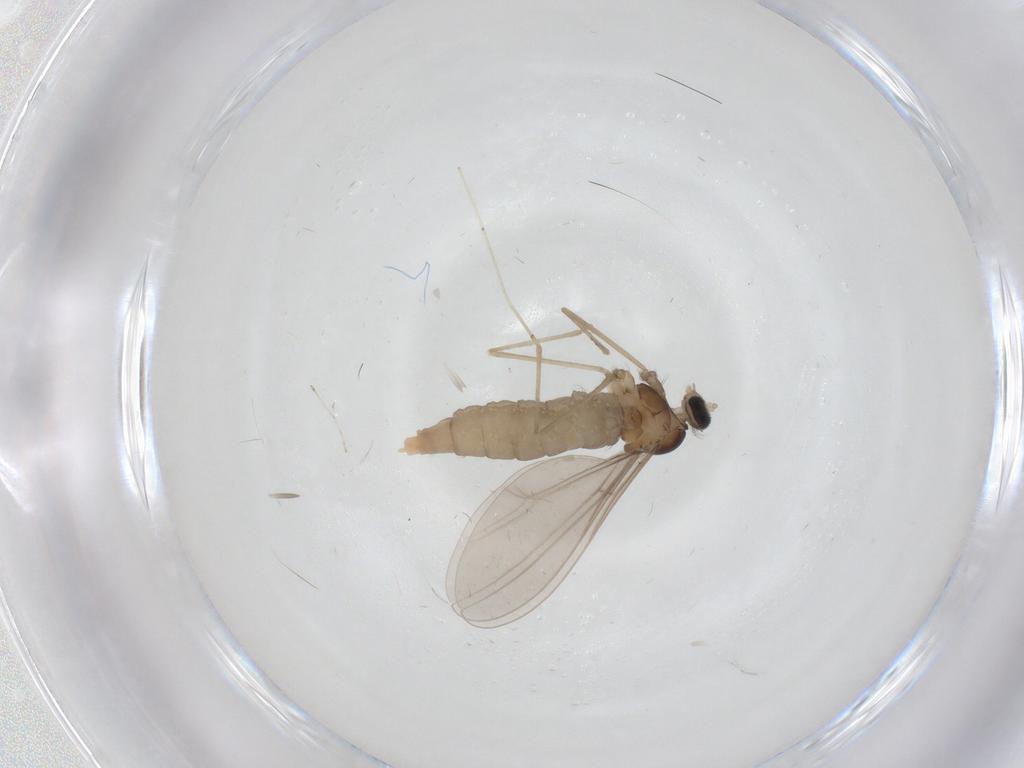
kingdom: Animalia
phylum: Arthropoda
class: Insecta
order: Diptera
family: Cecidomyiidae
